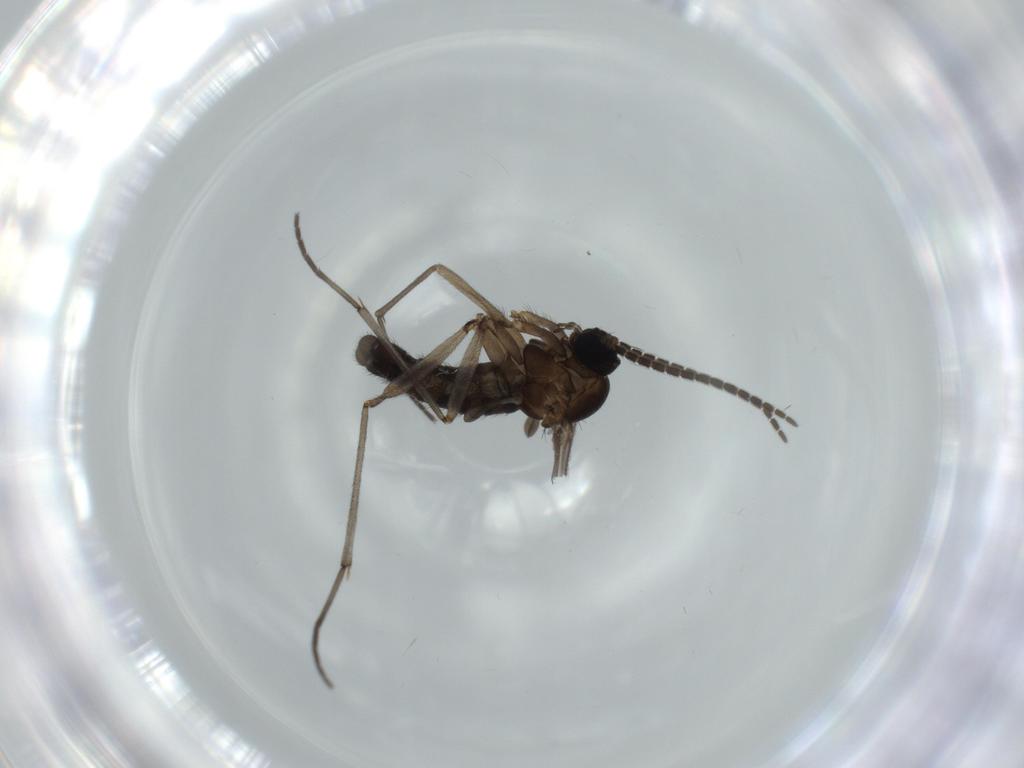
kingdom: Animalia
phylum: Arthropoda
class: Insecta
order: Diptera
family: Sciaridae
